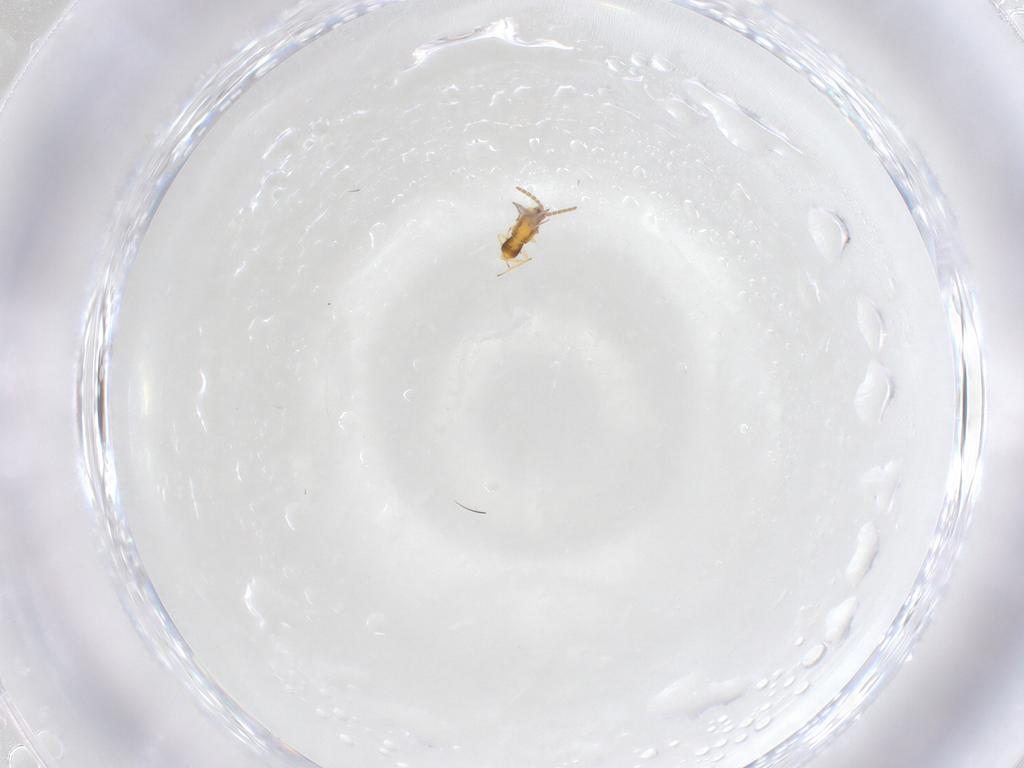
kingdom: Animalia
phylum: Arthropoda
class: Insecta
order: Hymenoptera
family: Aphelinidae
